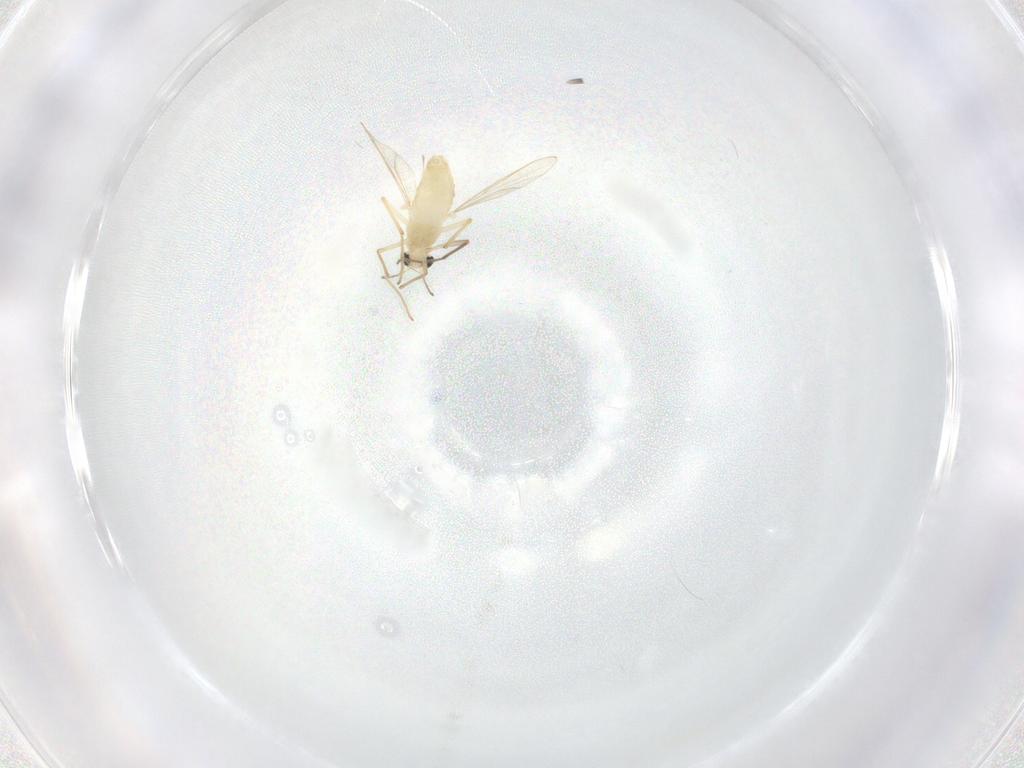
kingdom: Animalia
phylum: Arthropoda
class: Insecta
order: Diptera
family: Chironomidae
